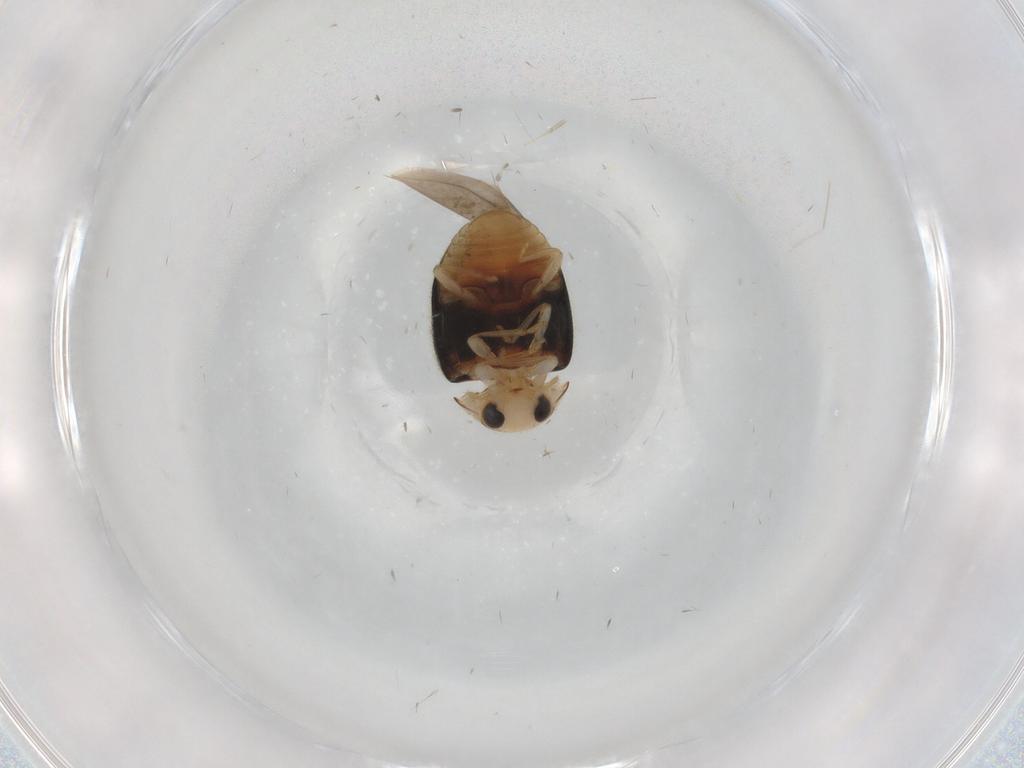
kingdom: Animalia
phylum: Arthropoda
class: Insecta
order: Coleoptera
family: Coccinellidae
